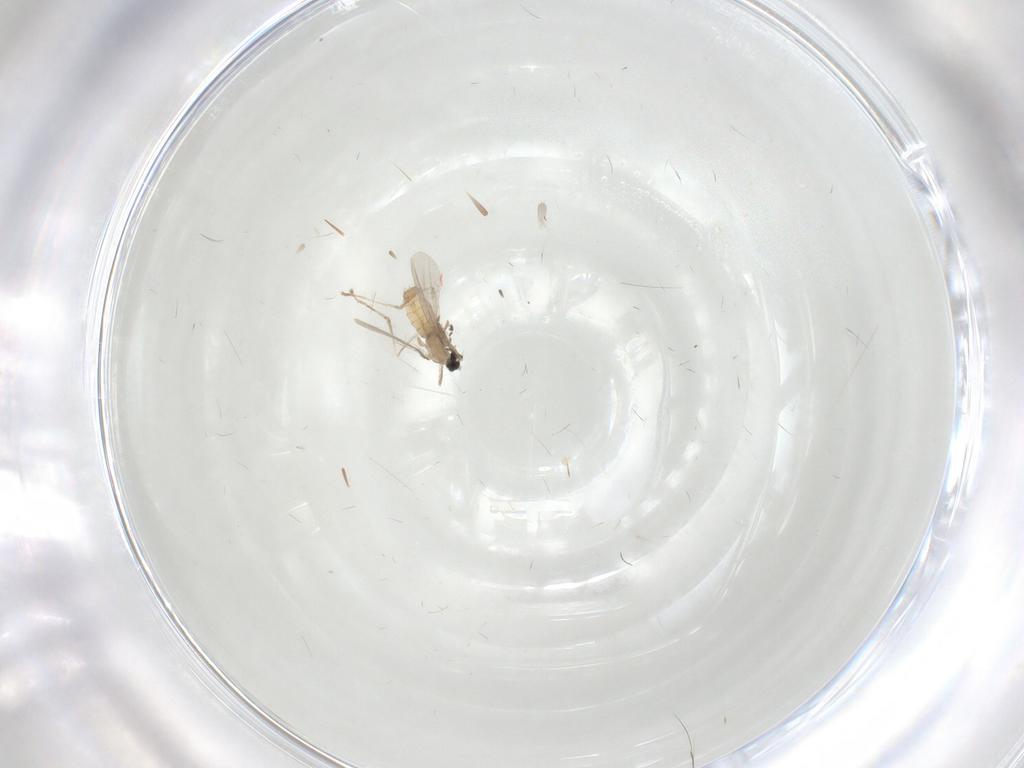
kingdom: Animalia
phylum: Arthropoda
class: Insecta
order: Diptera
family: Cecidomyiidae
